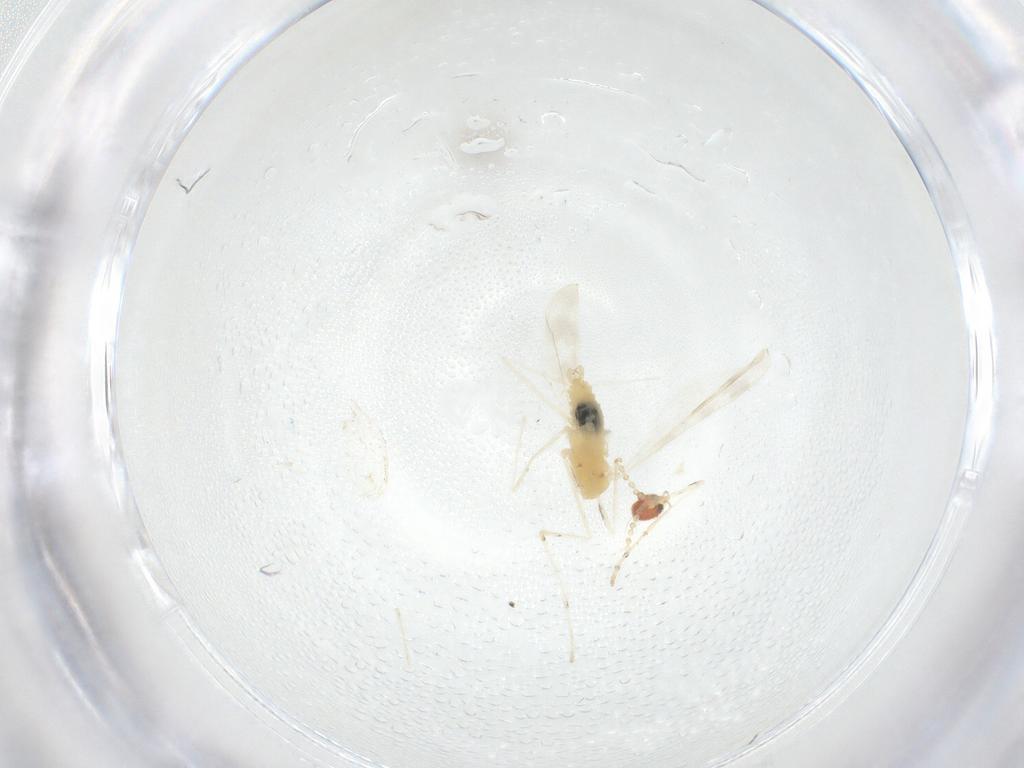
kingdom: Animalia
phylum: Arthropoda
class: Insecta
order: Diptera
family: Cecidomyiidae
